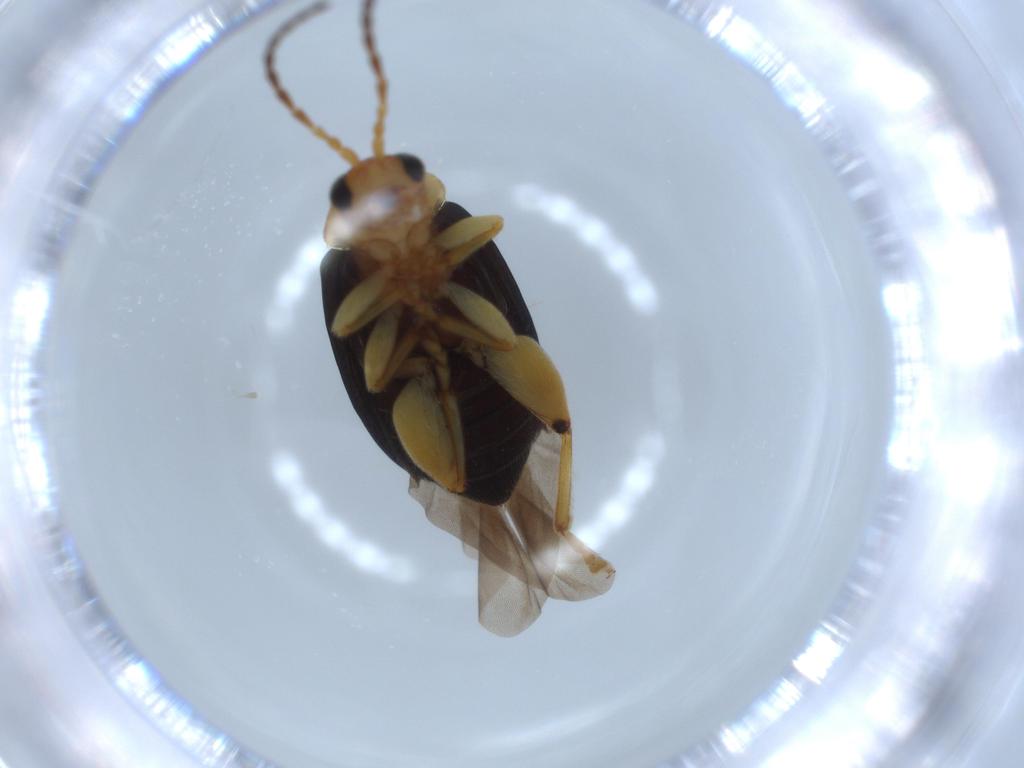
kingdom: Animalia
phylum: Arthropoda
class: Insecta
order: Coleoptera
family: Chrysomelidae
